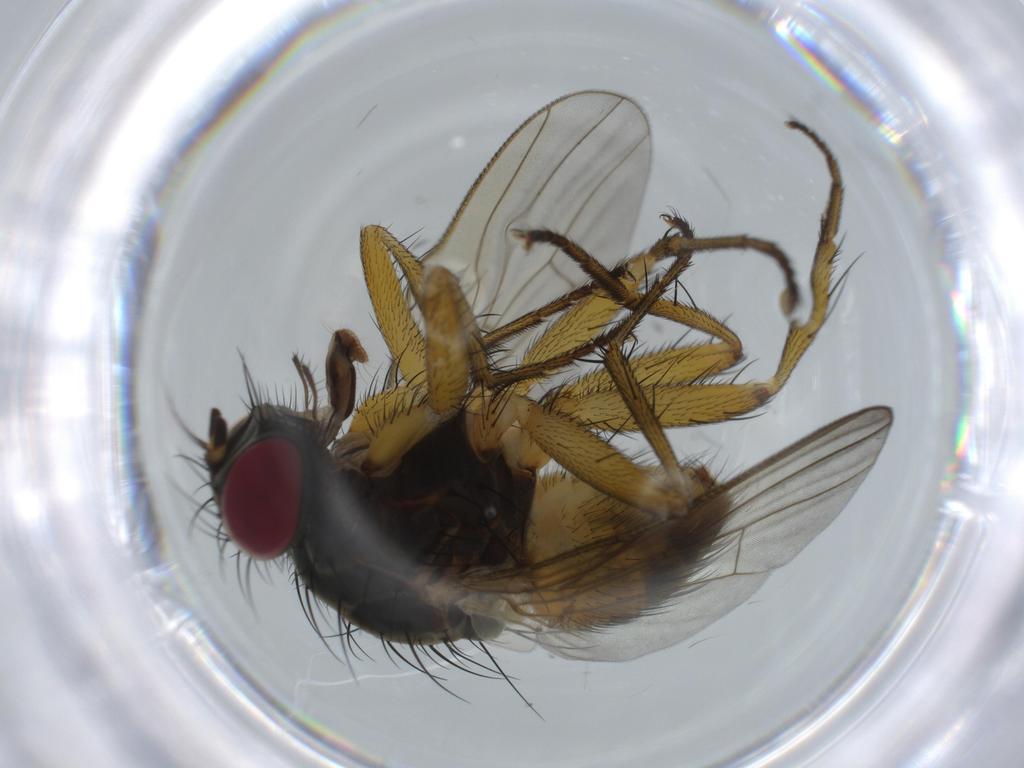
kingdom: Animalia
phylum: Arthropoda
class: Insecta
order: Diptera
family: Muscidae
